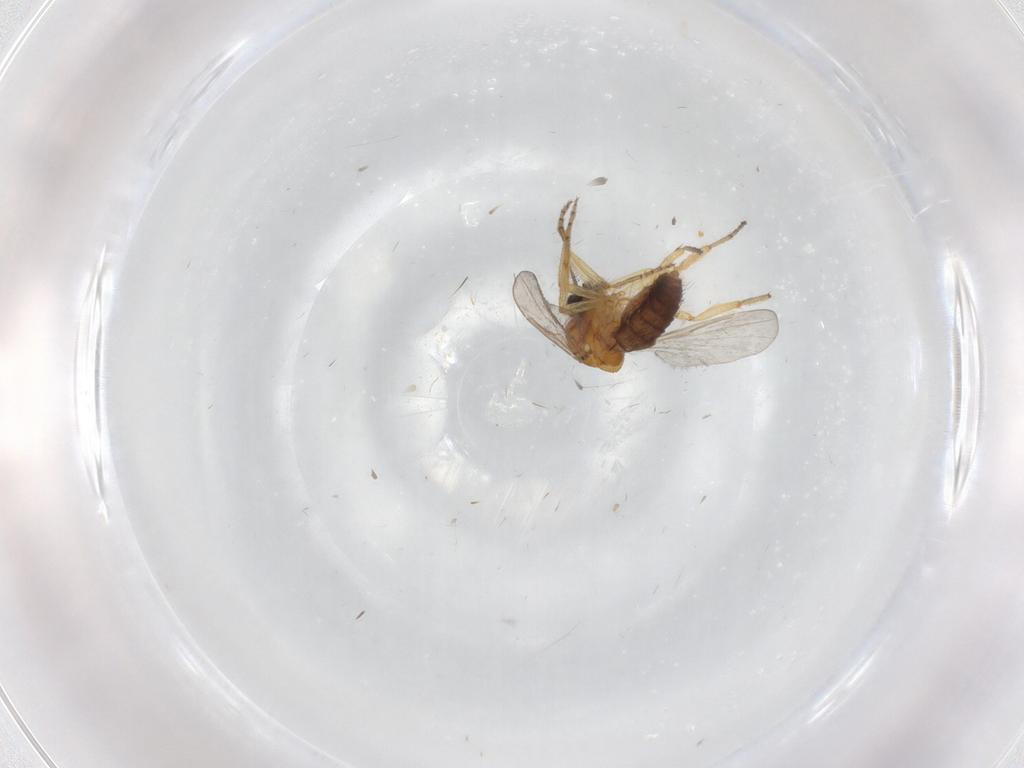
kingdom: Animalia
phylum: Arthropoda
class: Insecta
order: Diptera
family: Ceratopogonidae
